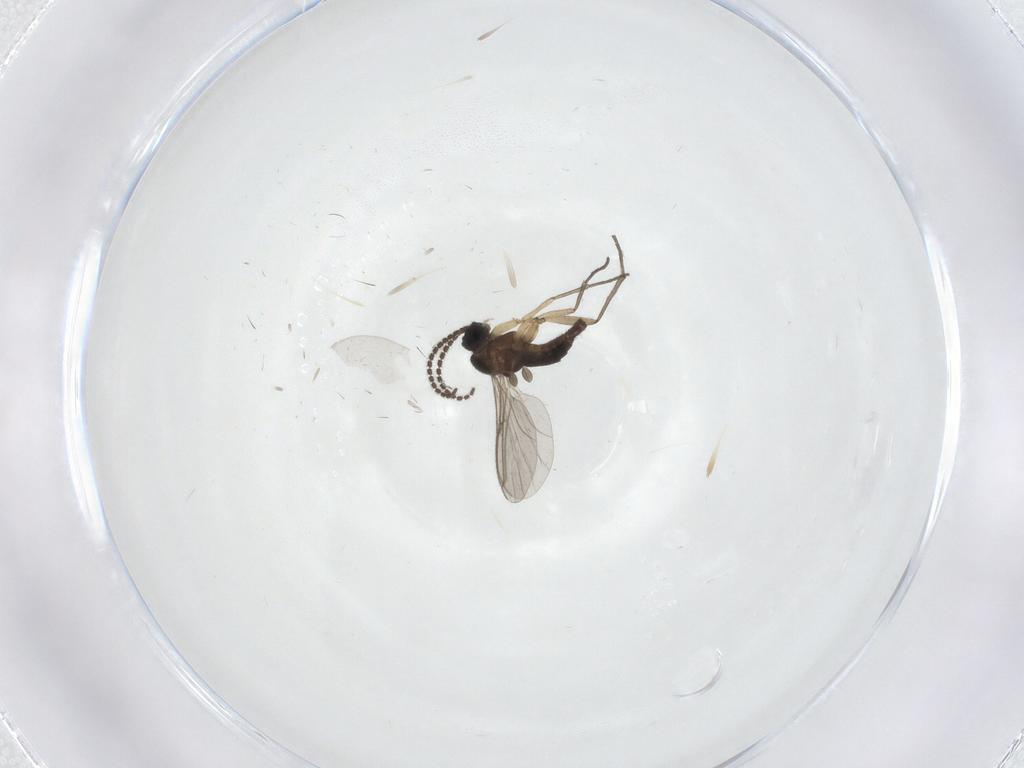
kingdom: Animalia
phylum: Arthropoda
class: Insecta
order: Diptera
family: Sciaridae
